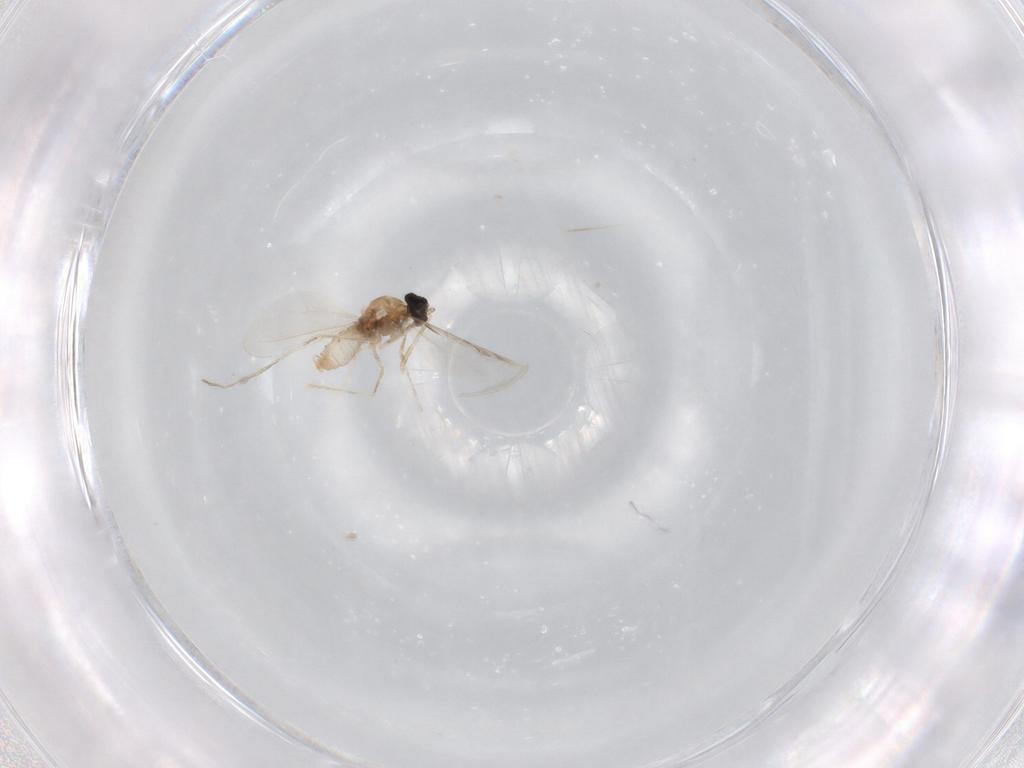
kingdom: Animalia
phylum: Arthropoda
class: Insecta
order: Diptera
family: Cecidomyiidae
